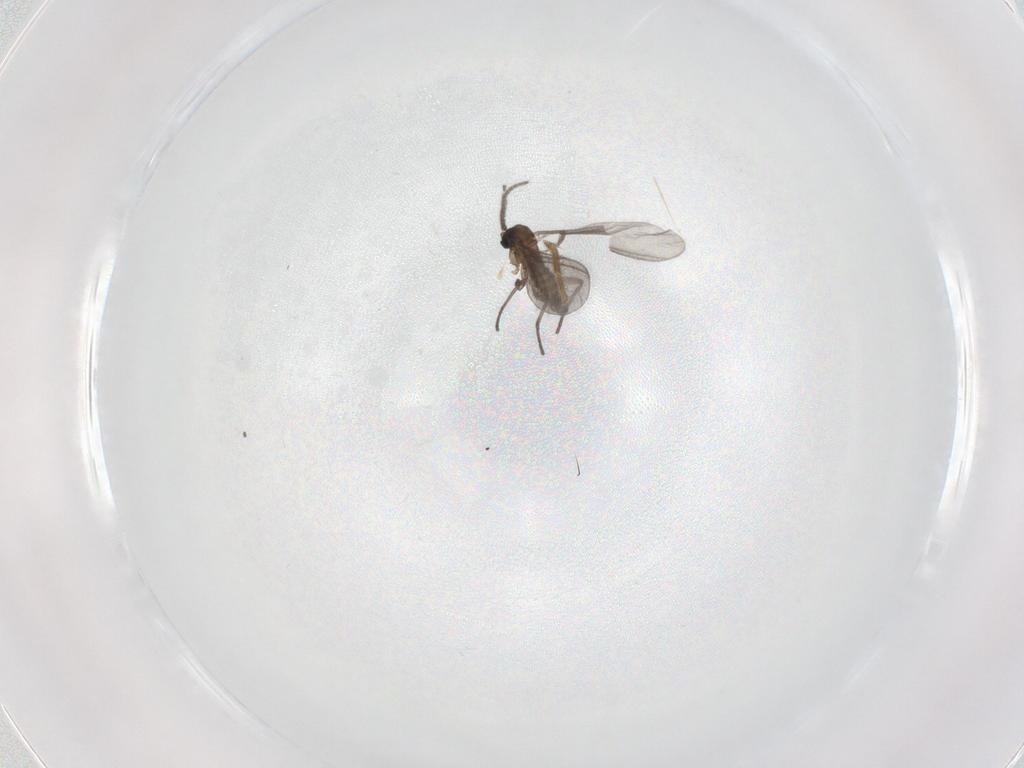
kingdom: Animalia
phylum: Arthropoda
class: Insecta
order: Diptera
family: Sciaridae
